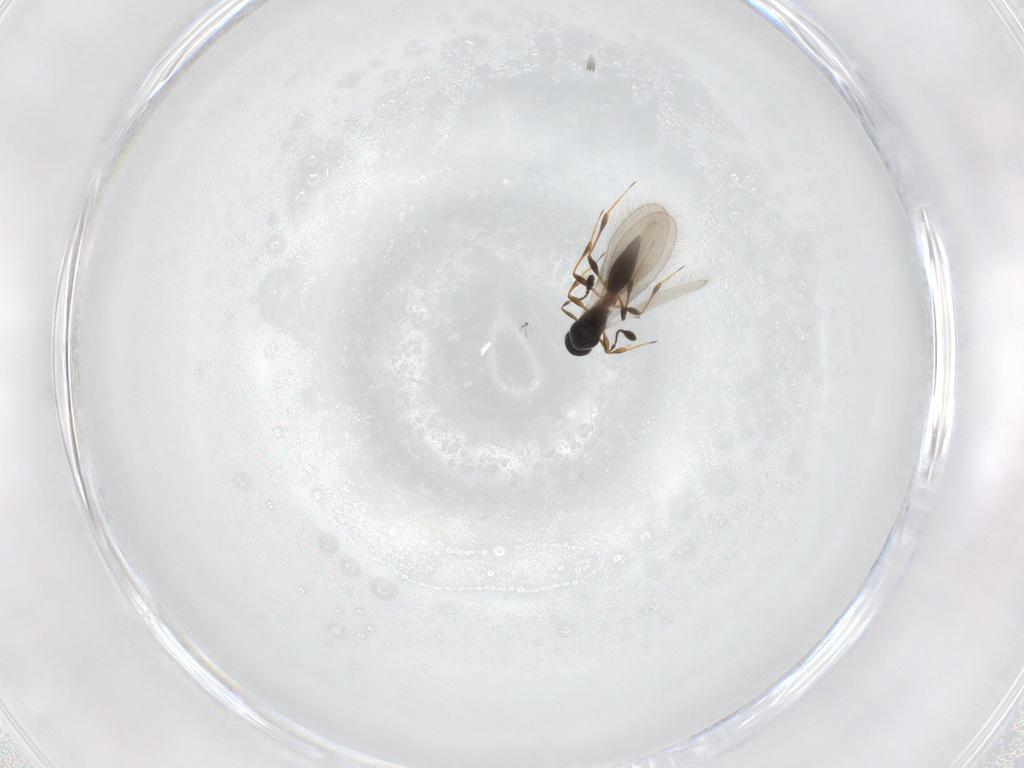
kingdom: Animalia
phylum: Arthropoda
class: Insecta
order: Hymenoptera
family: Platygastridae
